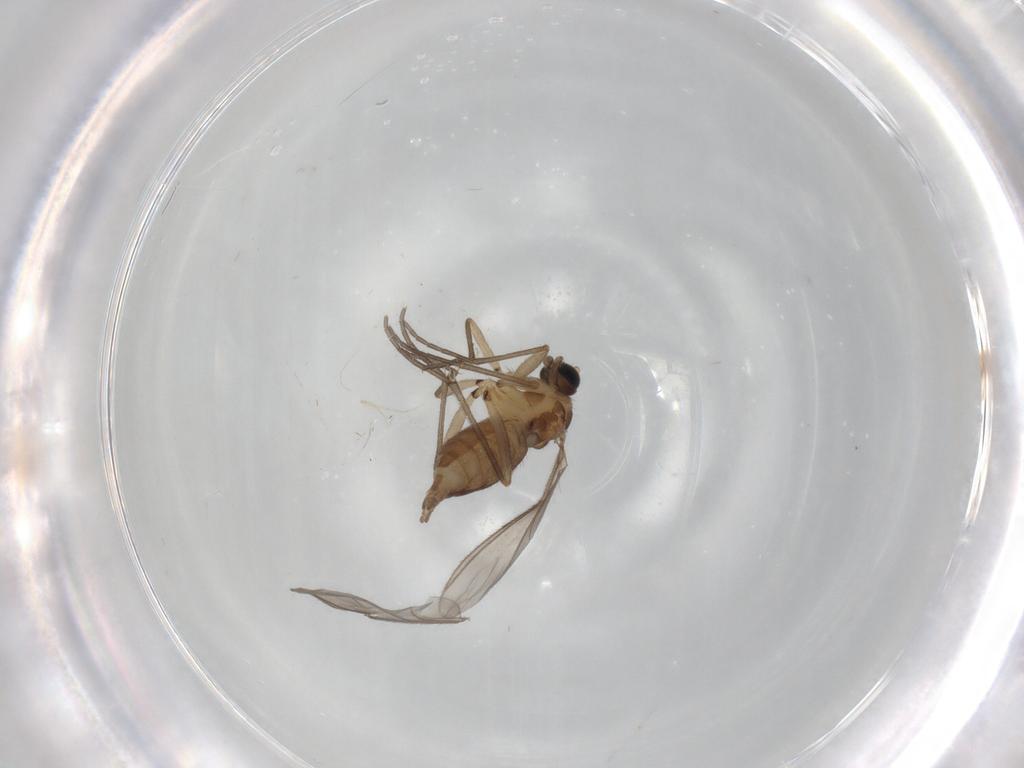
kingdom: Animalia
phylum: Arthropoda
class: Insecta
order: Diptera
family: Sciaridae
